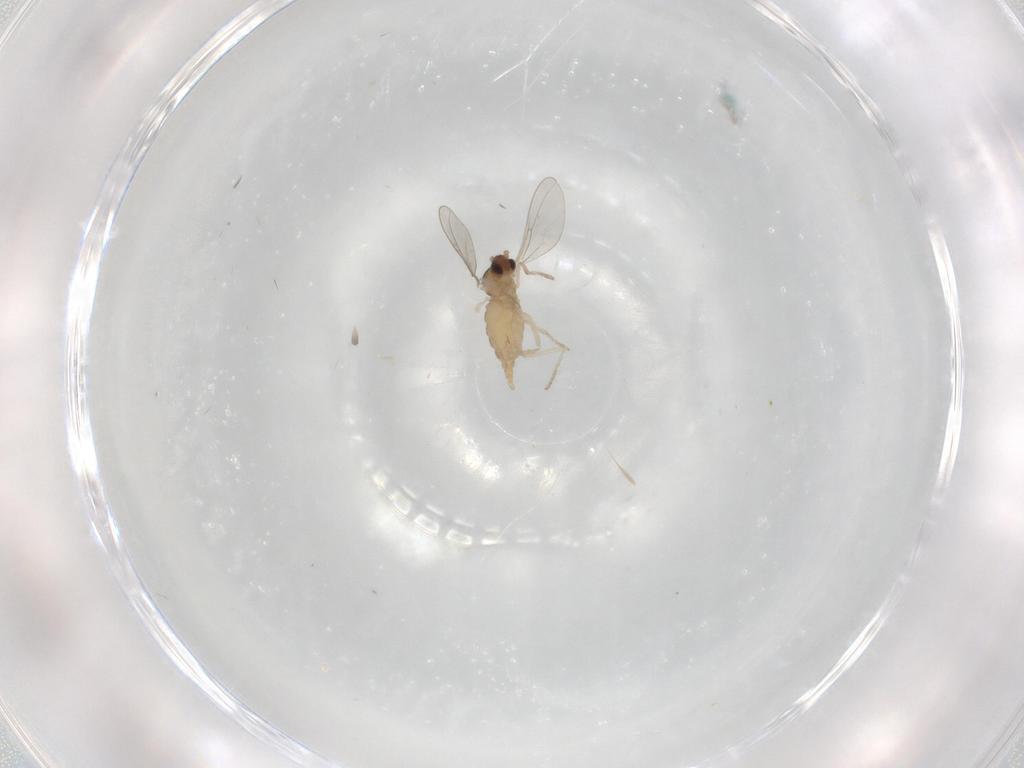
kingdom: Animalia
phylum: Arthropoda
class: Insecta
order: Diptera
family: Cecidomyiidae
